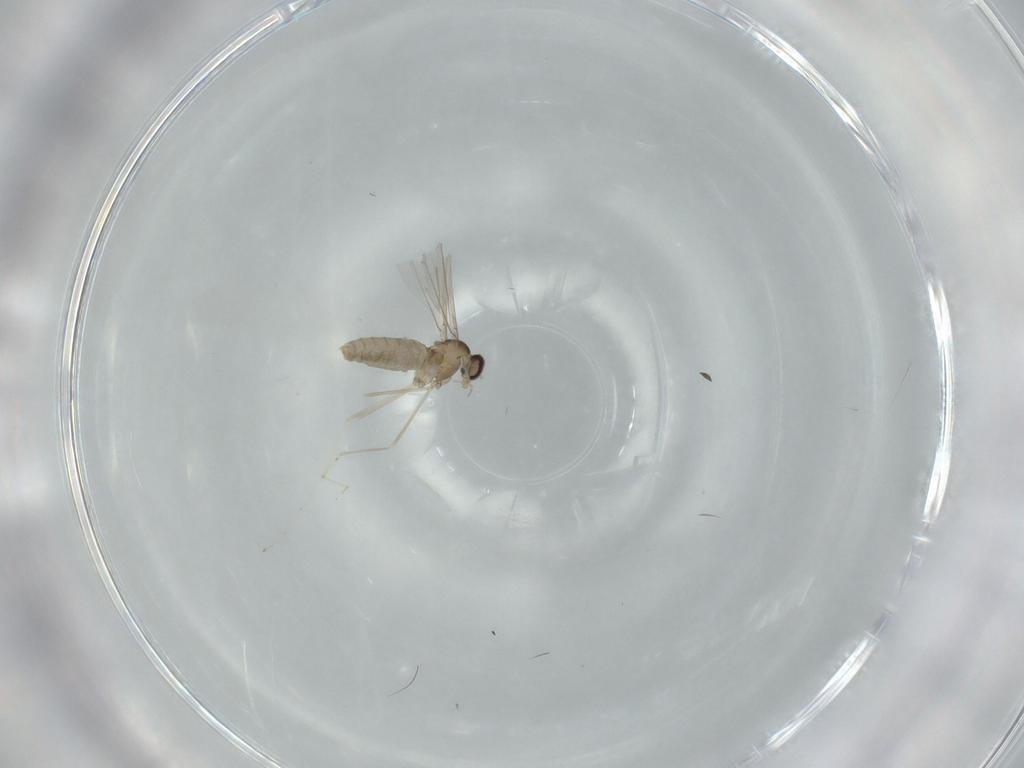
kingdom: Animalia
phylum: Arthropoda
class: Insecta
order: Diptera
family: Cecidomyiidae
